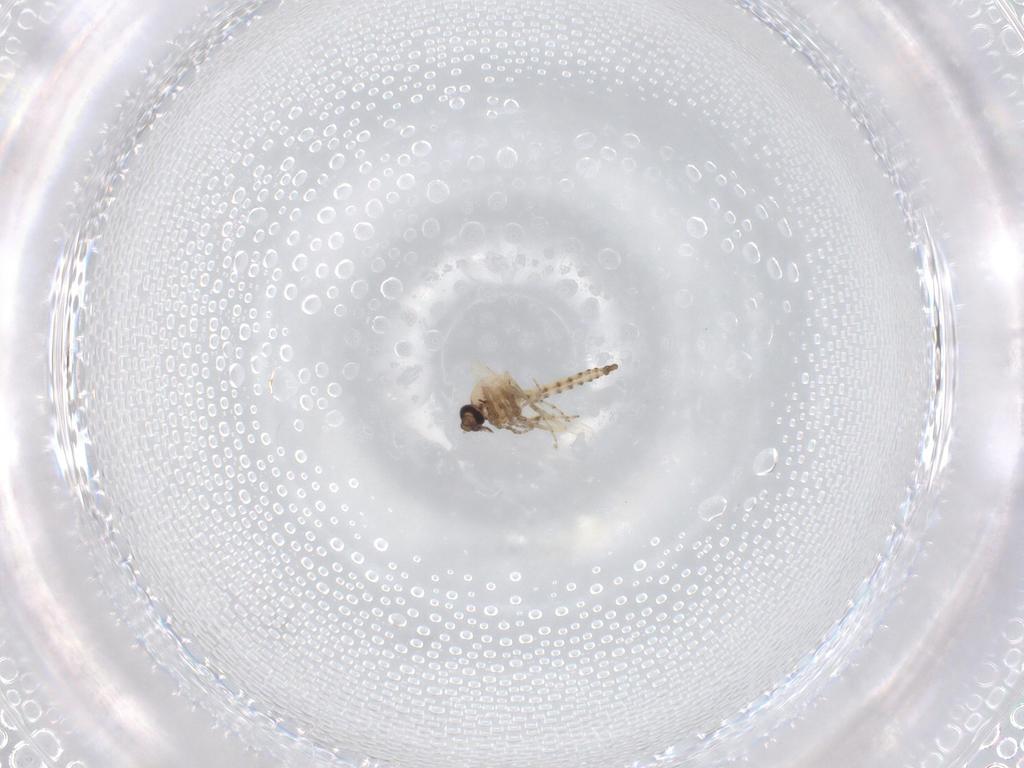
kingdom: Animalia
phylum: Arthropoda
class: Insecta
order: Diptera
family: Ceratopogonidae
